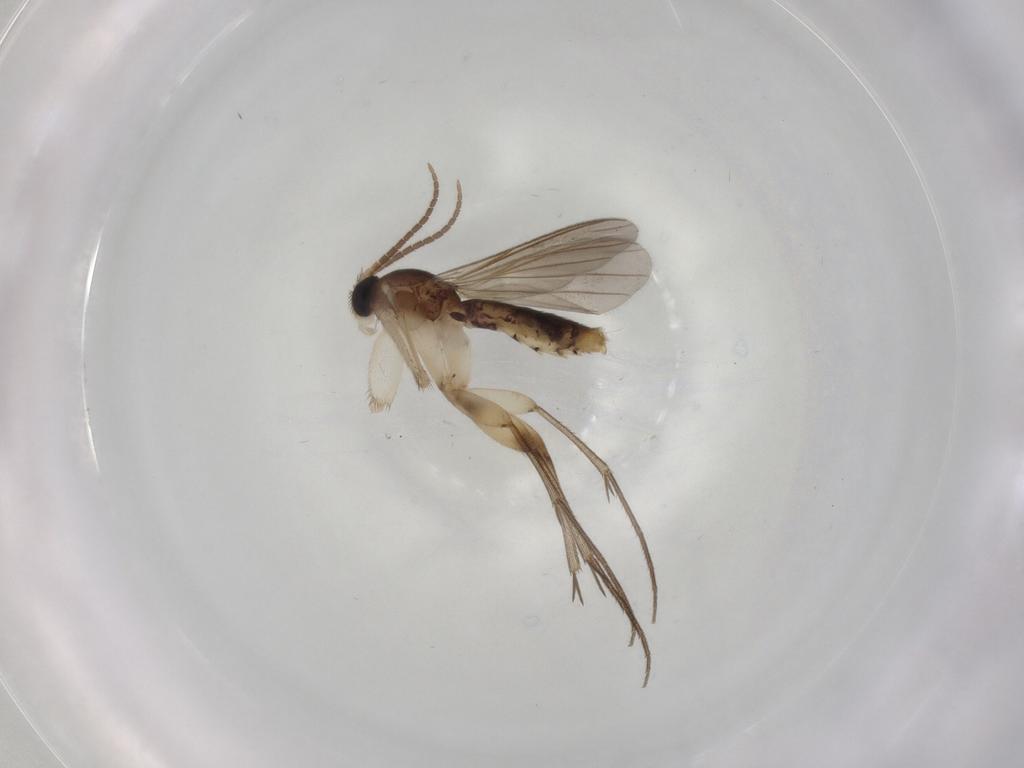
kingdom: Animalia
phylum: Arthropoda
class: Insecta
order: Diptera
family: Mycetophilidae
